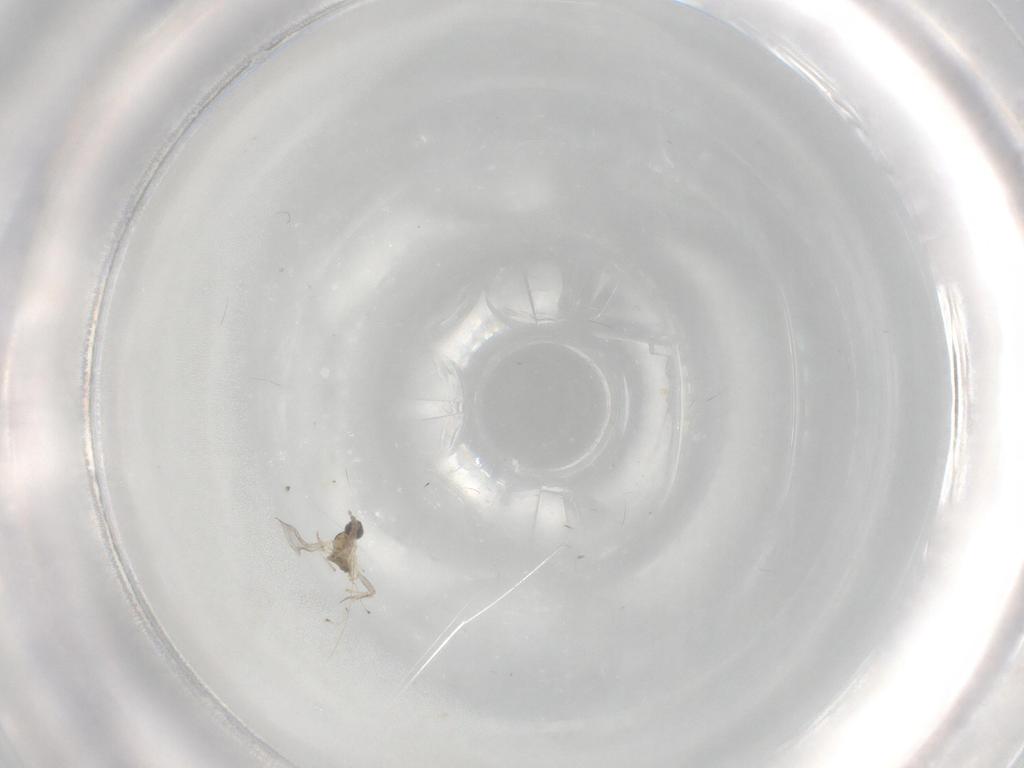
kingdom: Animalia
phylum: Arthropoda
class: Insecta
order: Diptera
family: Cecidomyiidae
